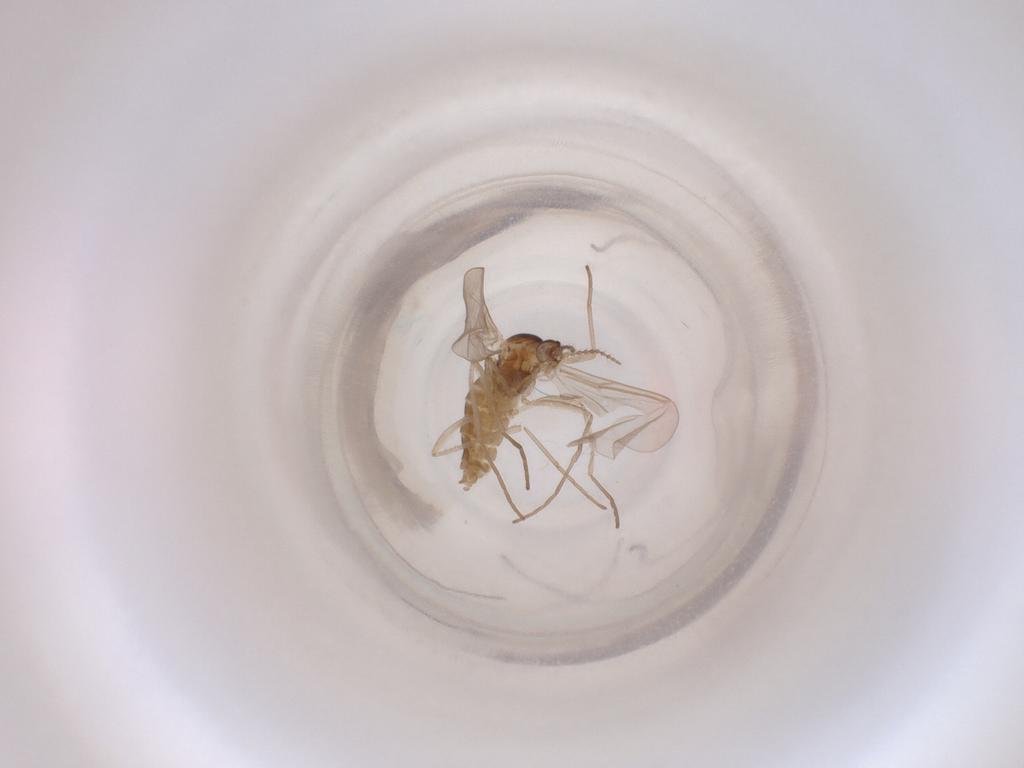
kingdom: Animalia
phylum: Arthropoda
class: Insecta
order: Diptera
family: Cecidomyiidae
